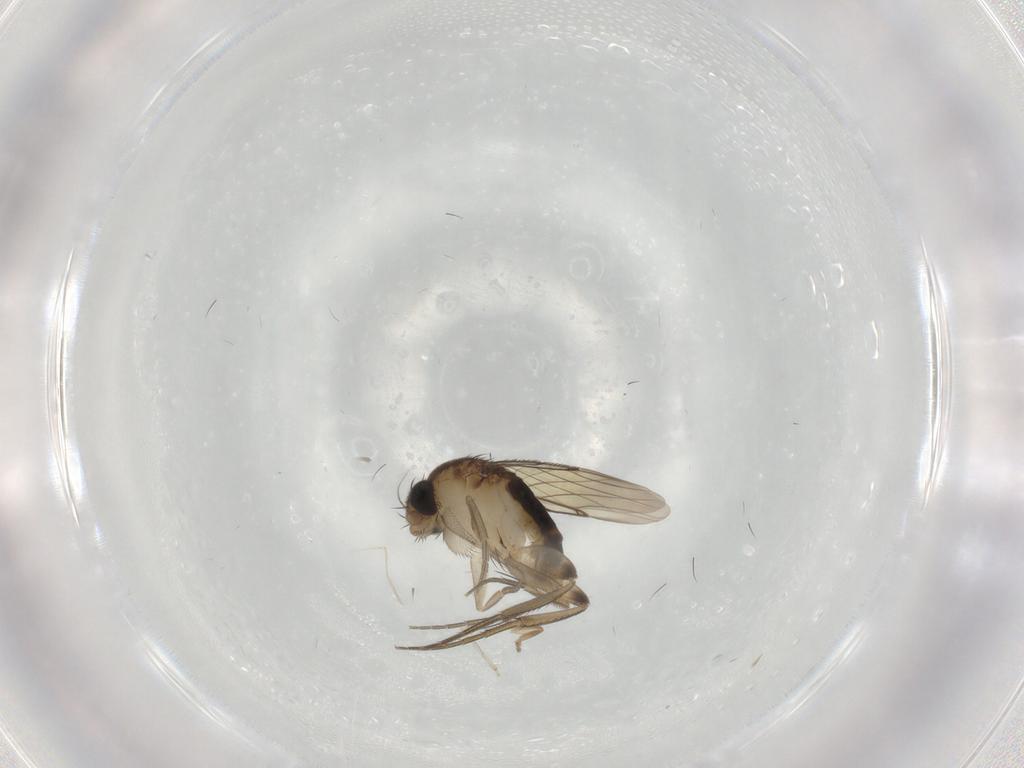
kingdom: Animalia
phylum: Arthropoda
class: Insecta
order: Diptera
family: Phoridae
